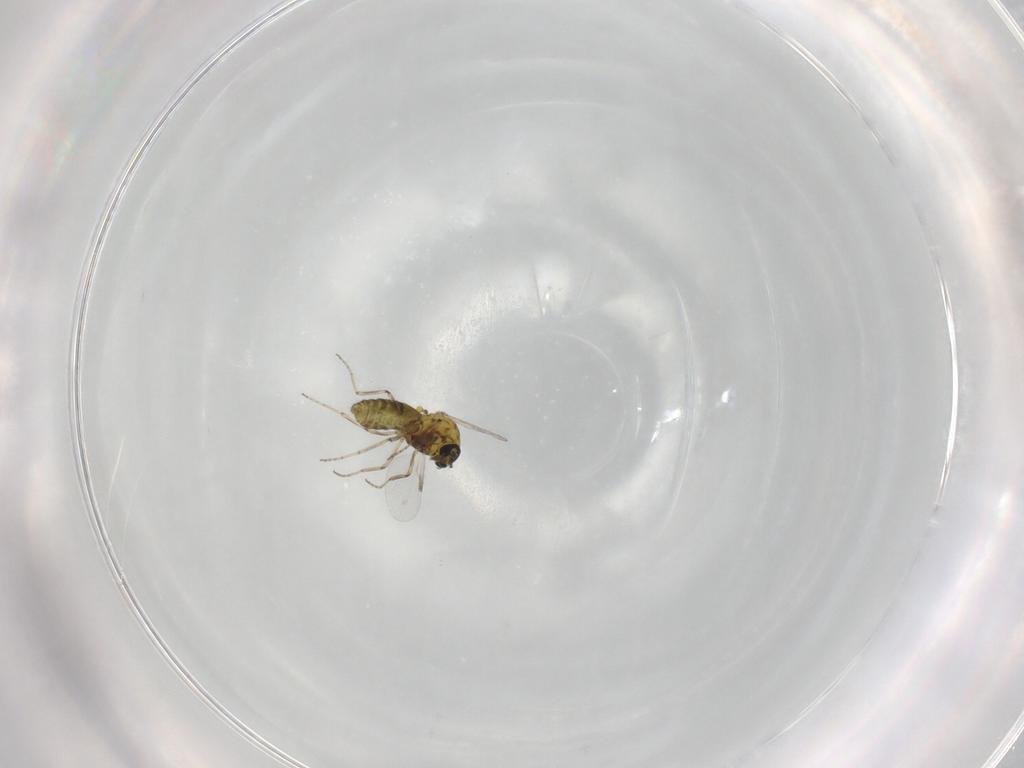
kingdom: Animalia
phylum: Arthropoda
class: Insecta
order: Diptera
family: Ceratopogonidae
